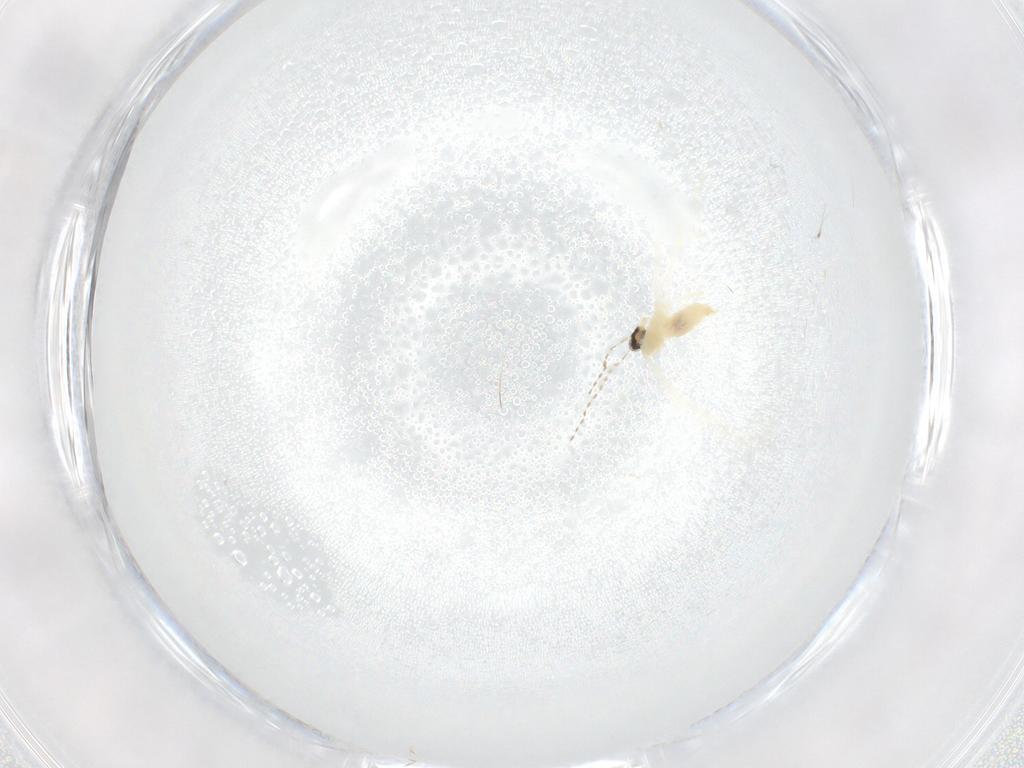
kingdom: Animalia
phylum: Arthropoda
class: Insecta
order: Diptera
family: Cecidomyiidae
